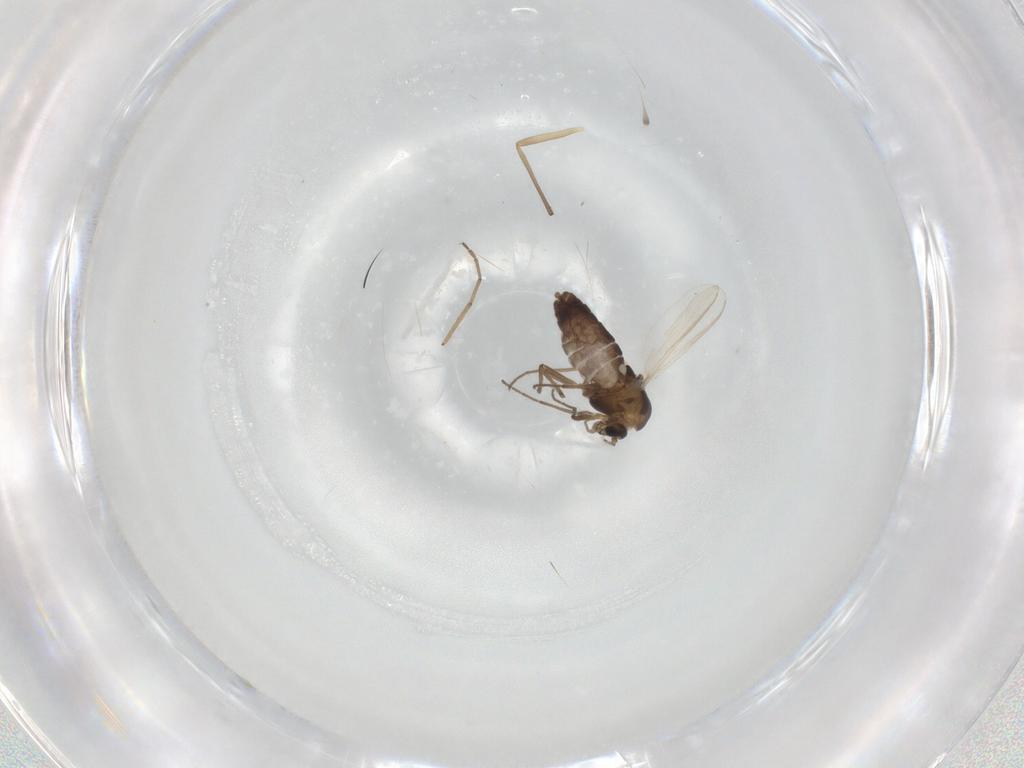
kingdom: Animalia
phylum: Arthropoda
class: Insecta
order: Diptera
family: Chironomidae
